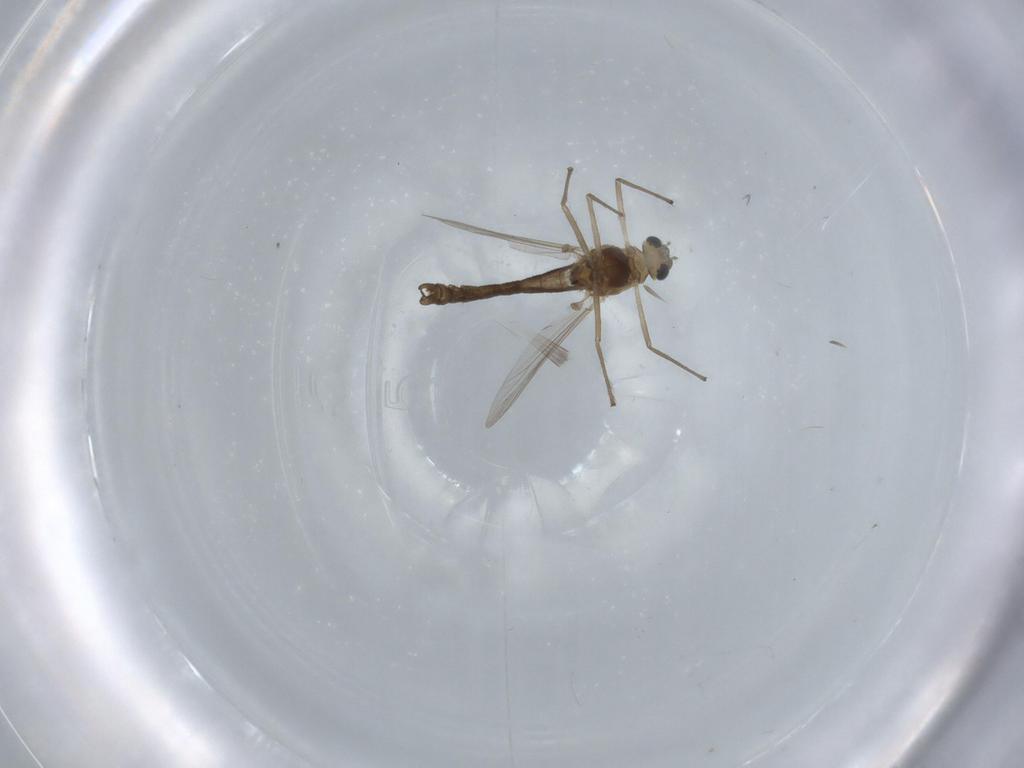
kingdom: Animalia
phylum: Arthropoda
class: Insecta
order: Diptera
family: Chironomidae
